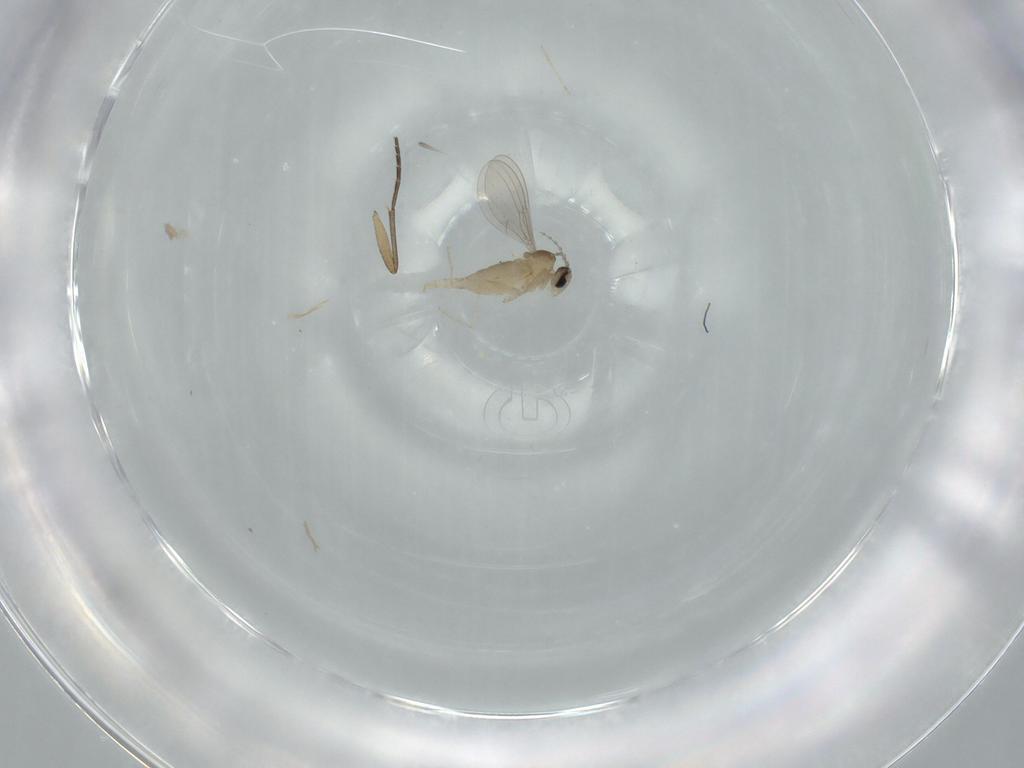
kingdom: Animalia
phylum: Arthropoda
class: Insecta
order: Diptera
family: Cecidomyiidae
